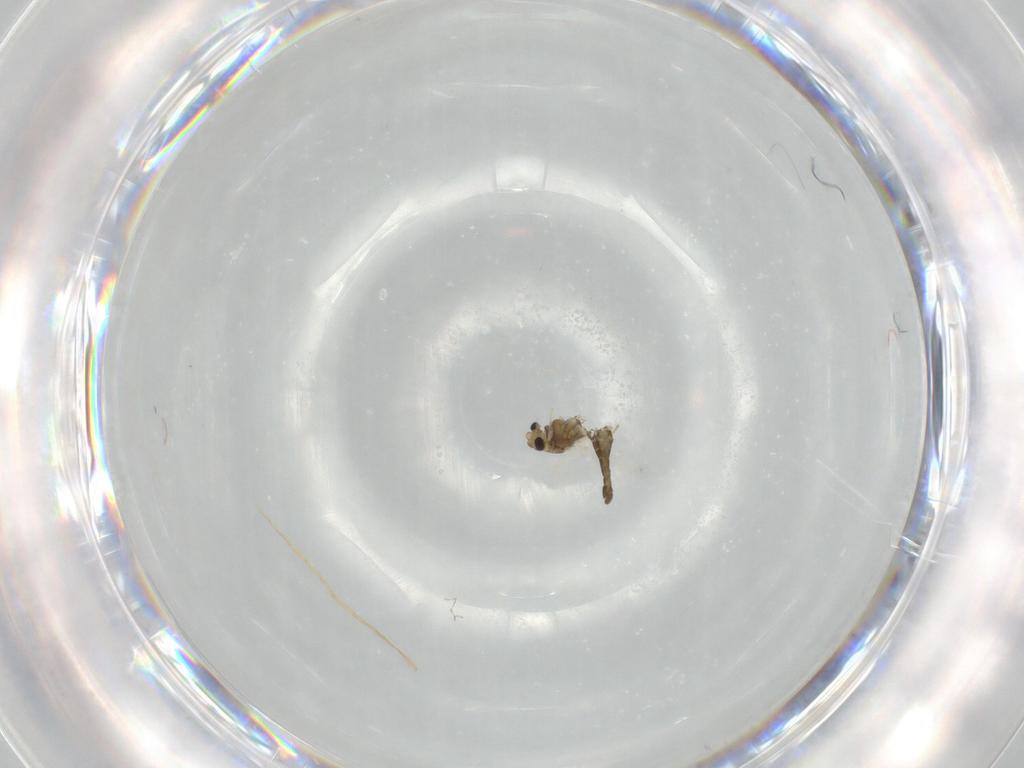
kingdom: Animalia
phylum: Arthropoda
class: Insecta
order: Diptera
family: Chironomidae
